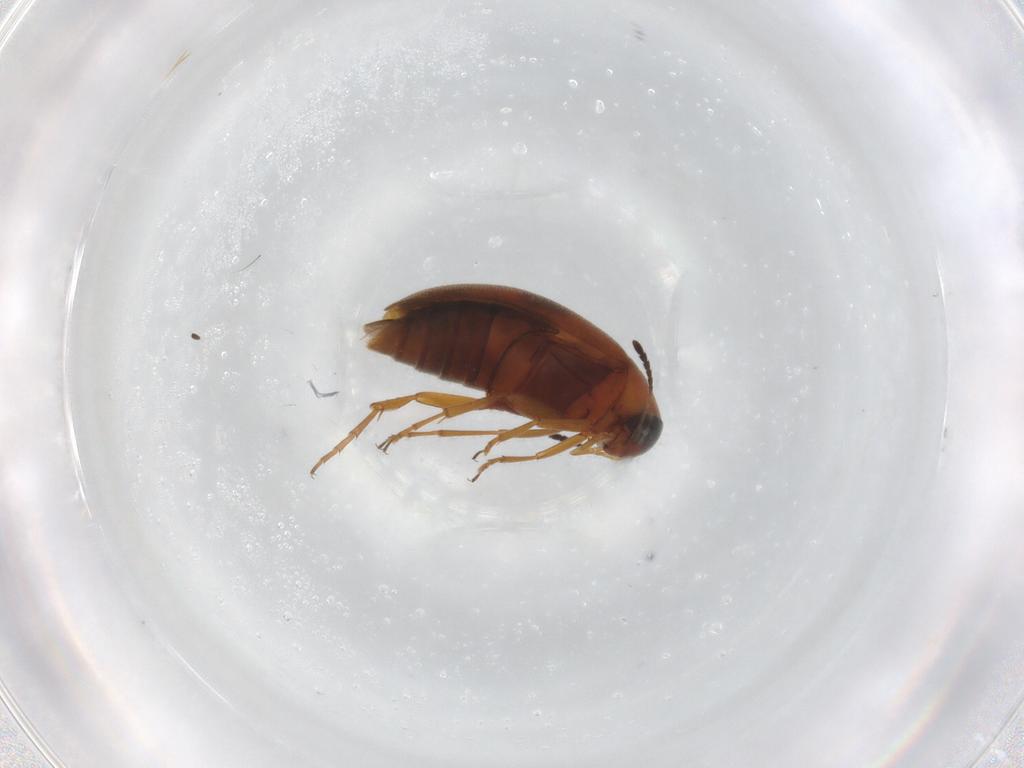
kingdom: Animalia
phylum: Arthropoda
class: Insecta
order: Coleoptera
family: Scraptiidae
